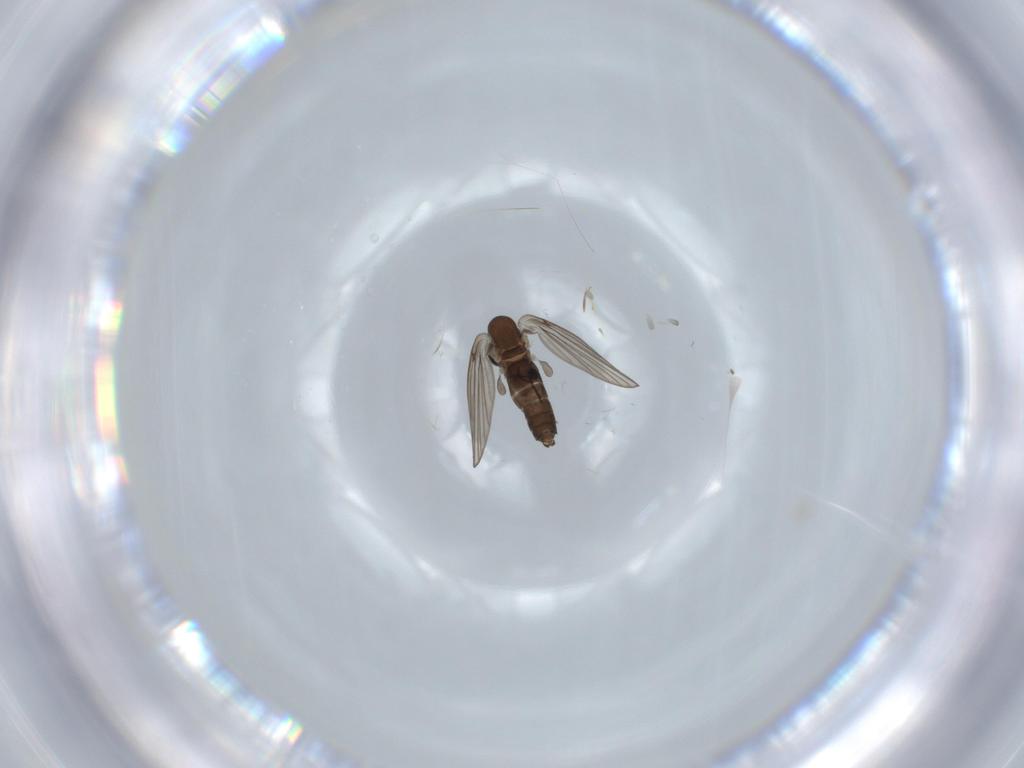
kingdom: Animalia
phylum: Arthropoda
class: Insecta
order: Diptera
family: Phoridae
